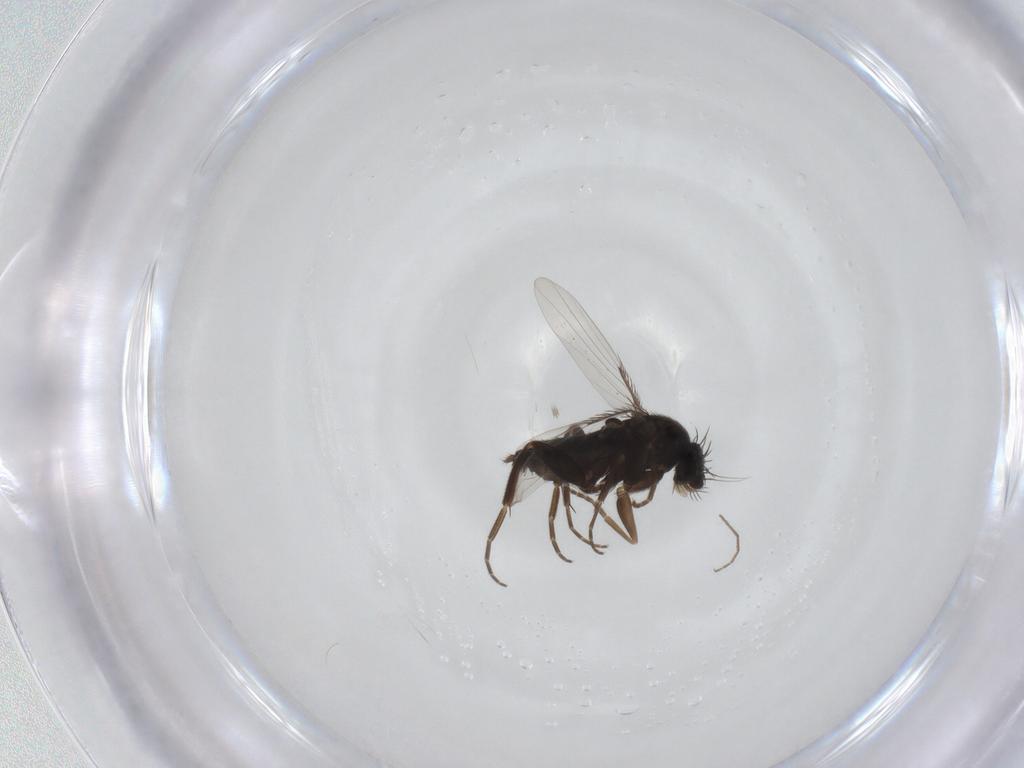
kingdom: Animalia
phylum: Arthropoda
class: Insecta
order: Diptera
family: Phoridae
